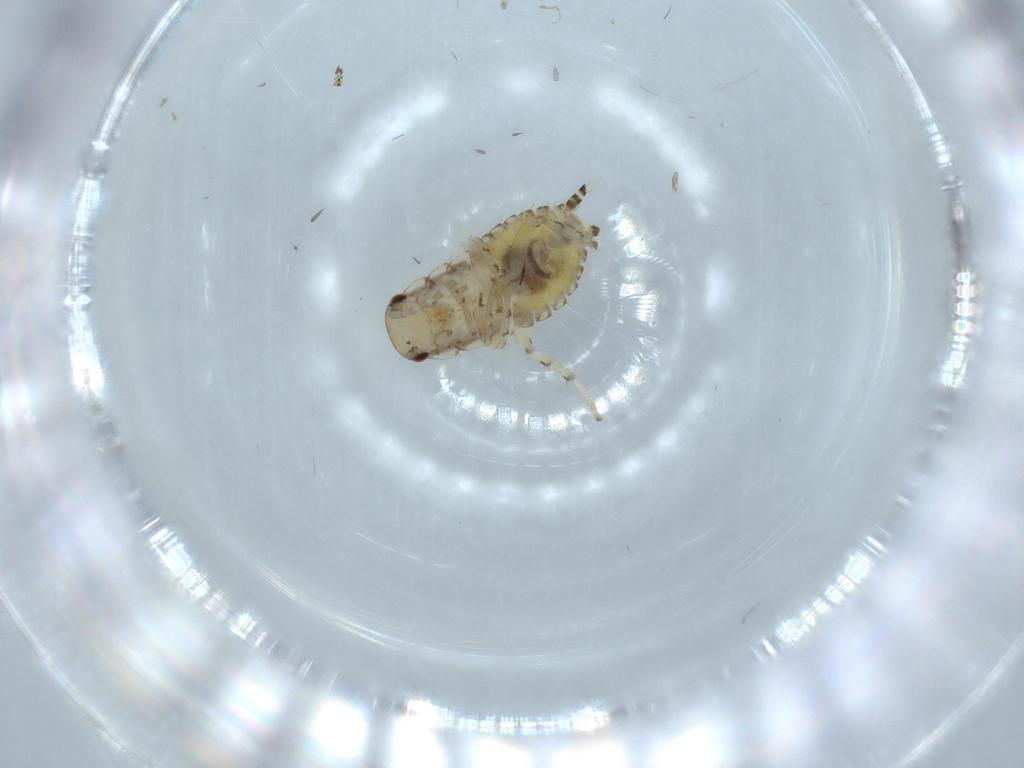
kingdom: Animalia
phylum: Arthropoda
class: Insecta
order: Blattodea
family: Ectobiidae
